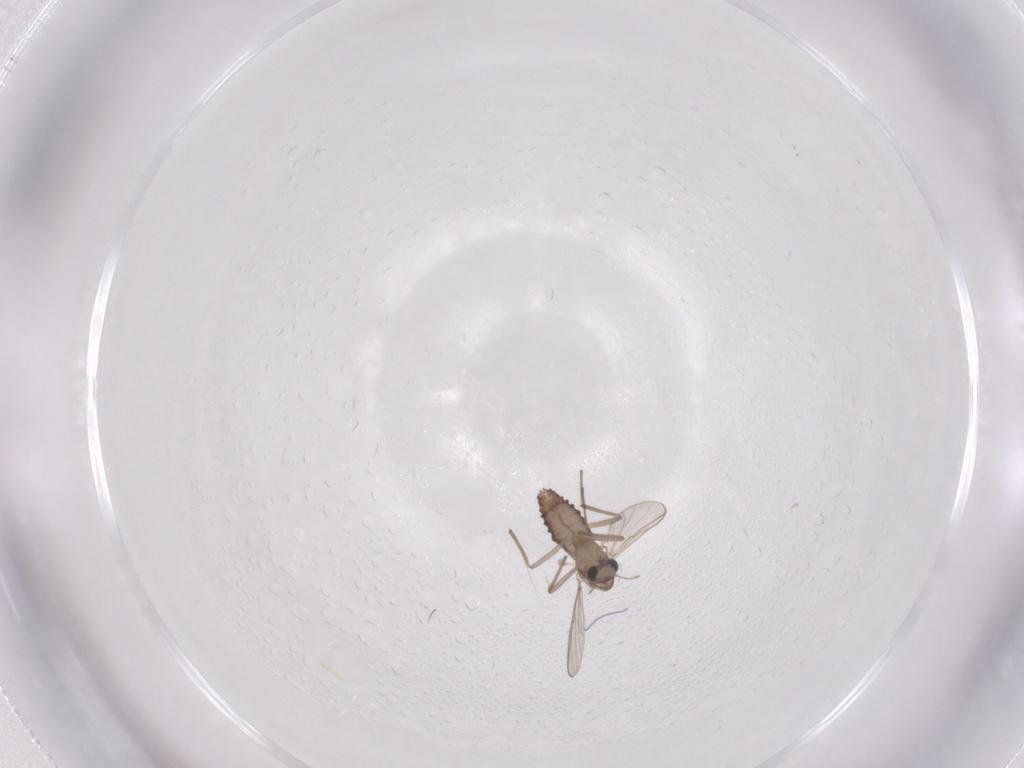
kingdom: Animalia
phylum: Arthropoda
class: Insecta
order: Diptera
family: Chironomidae
